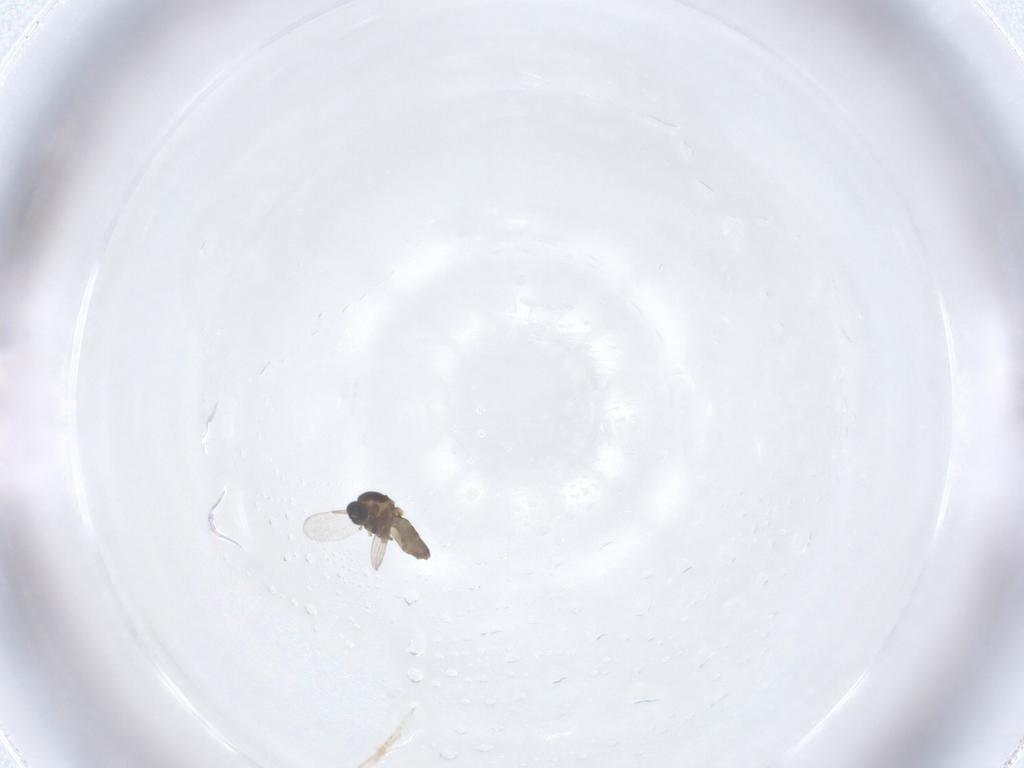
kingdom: Animalia
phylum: Arthropoda
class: Insecta
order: Diptera
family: Ceratopogonidae
